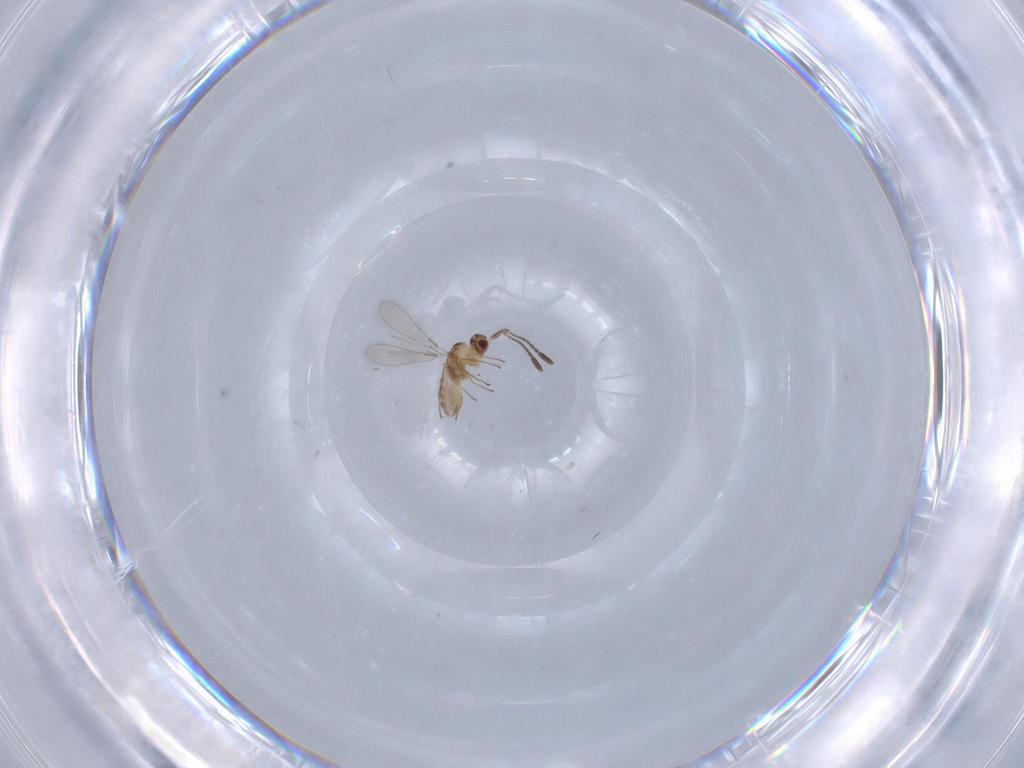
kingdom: Animalia
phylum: Arthropoda
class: Insecta
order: Hymenoptera
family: Mymaridae
